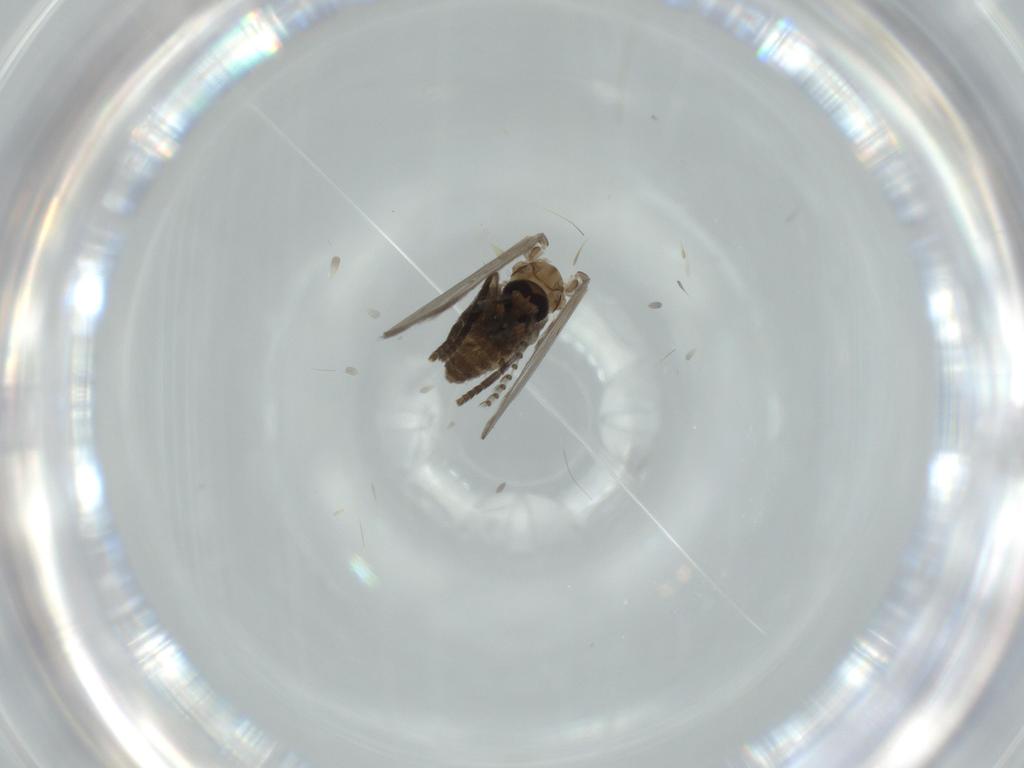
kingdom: Animalia
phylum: Arthropoda
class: Insecta
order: Diptera
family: Psychodidae
